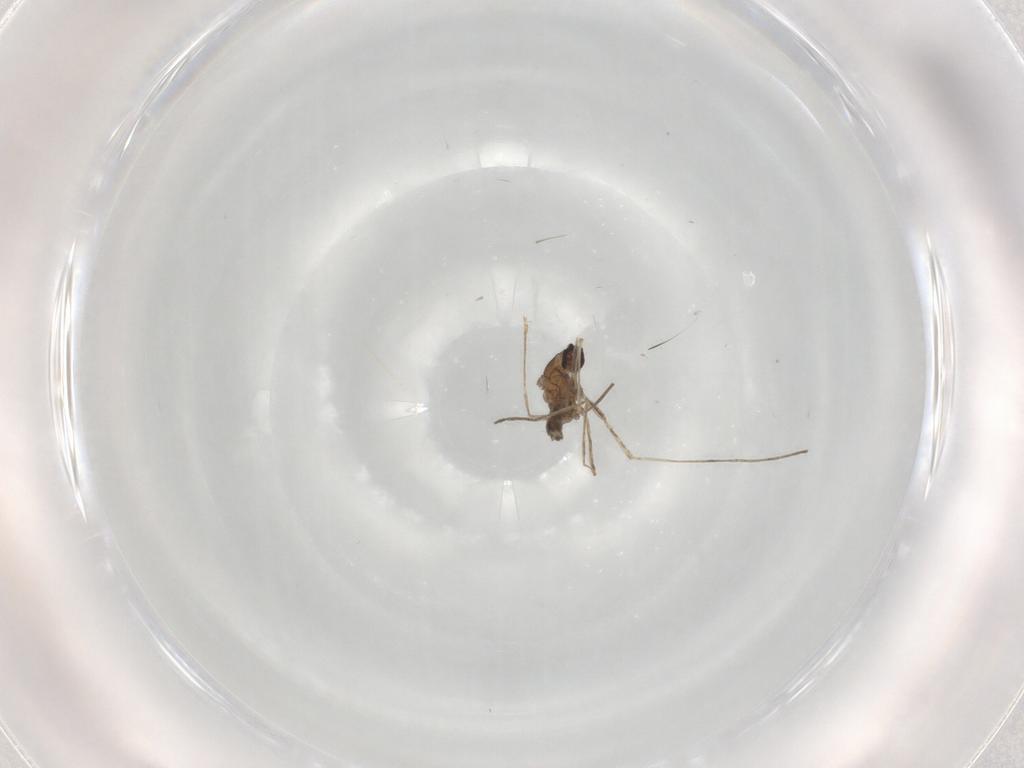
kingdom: Animalia
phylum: Arthropoda
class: Insecta
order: Diptera
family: Cecidomyiidae
